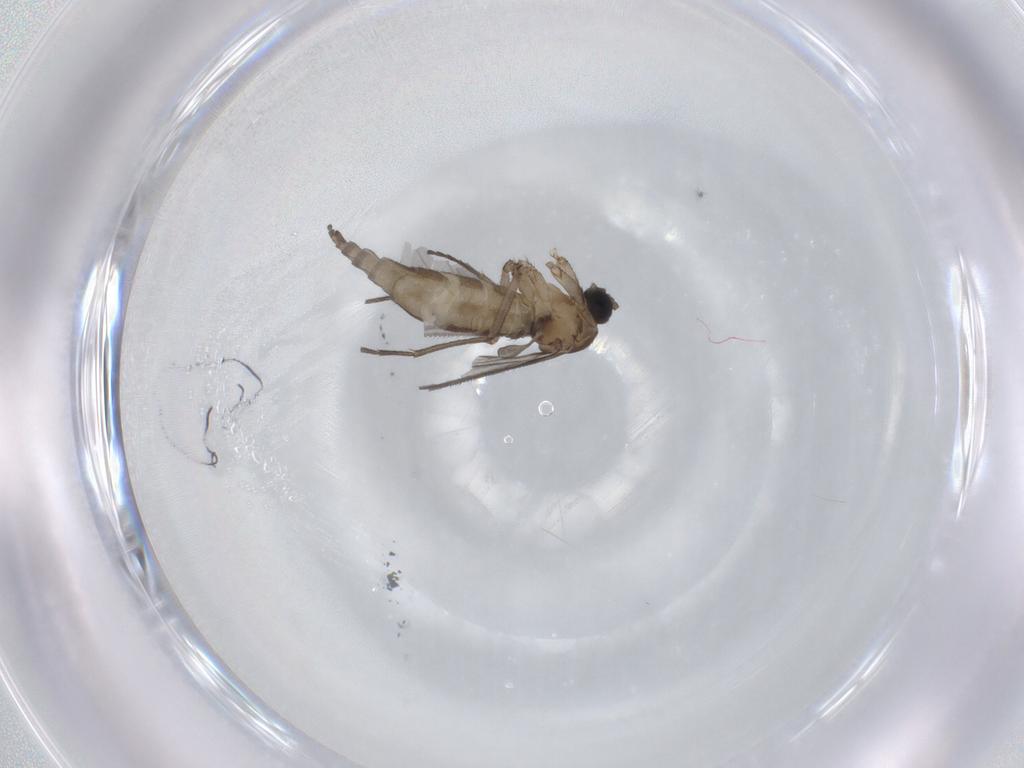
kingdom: Animalia
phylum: Arthropoda
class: Insecta
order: Diptera
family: Sciaridae
